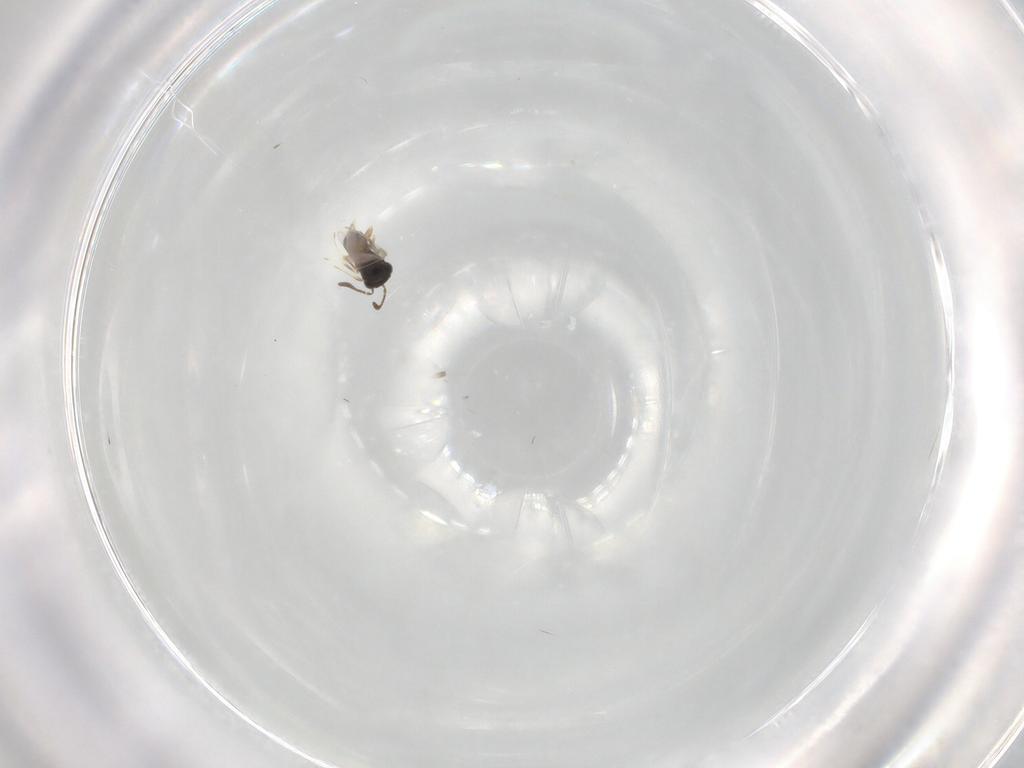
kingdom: Animalia
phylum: Arthropoda
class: Insecta
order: Hymenoptera
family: Scelionidae
